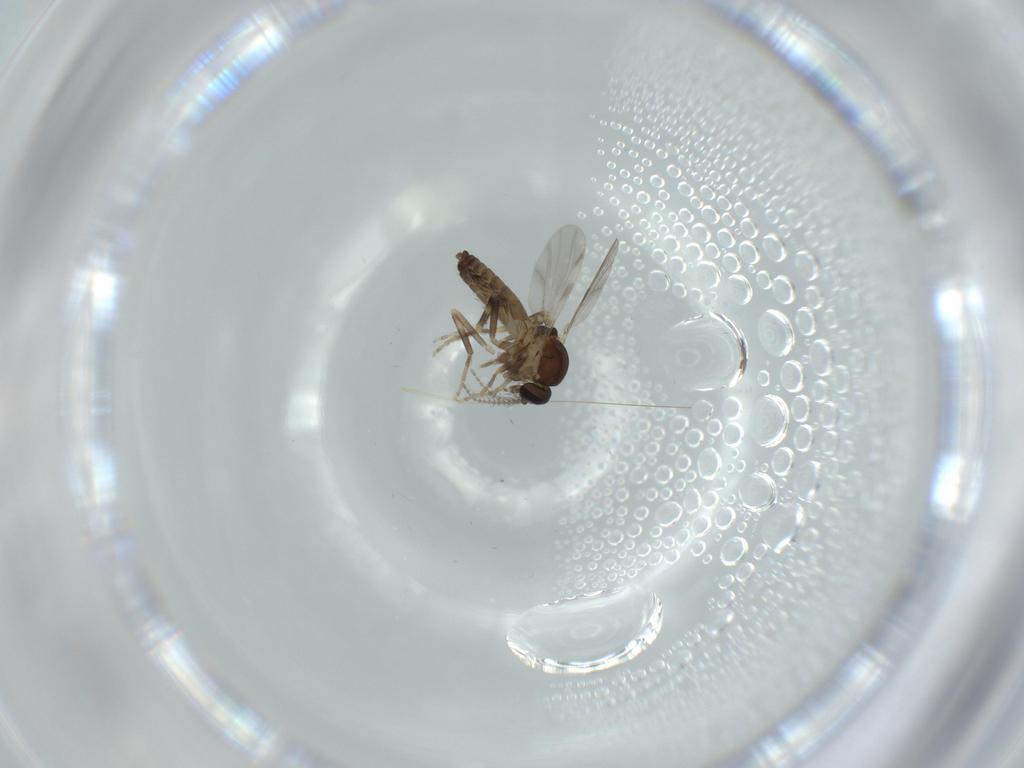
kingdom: Animalia
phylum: Arthropoda
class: Insecta
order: Diptera
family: Ceratopogonidae
